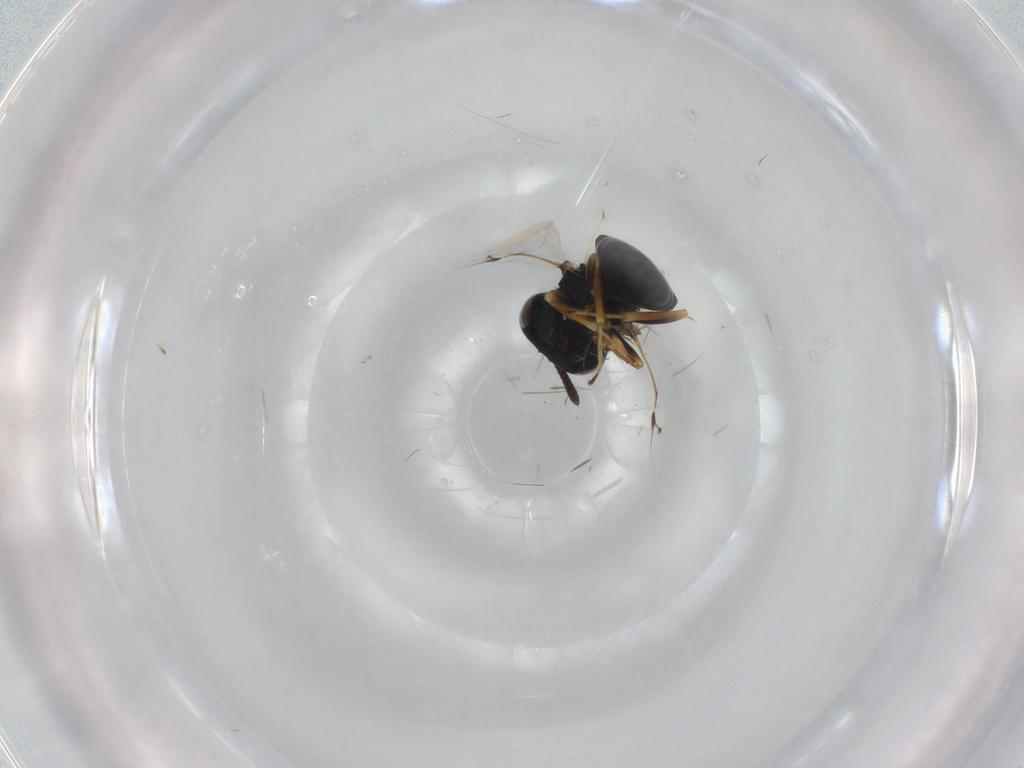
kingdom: Animalia
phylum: Arthropoda
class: Insecta
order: Hymenoptera
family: Pteromalidae
